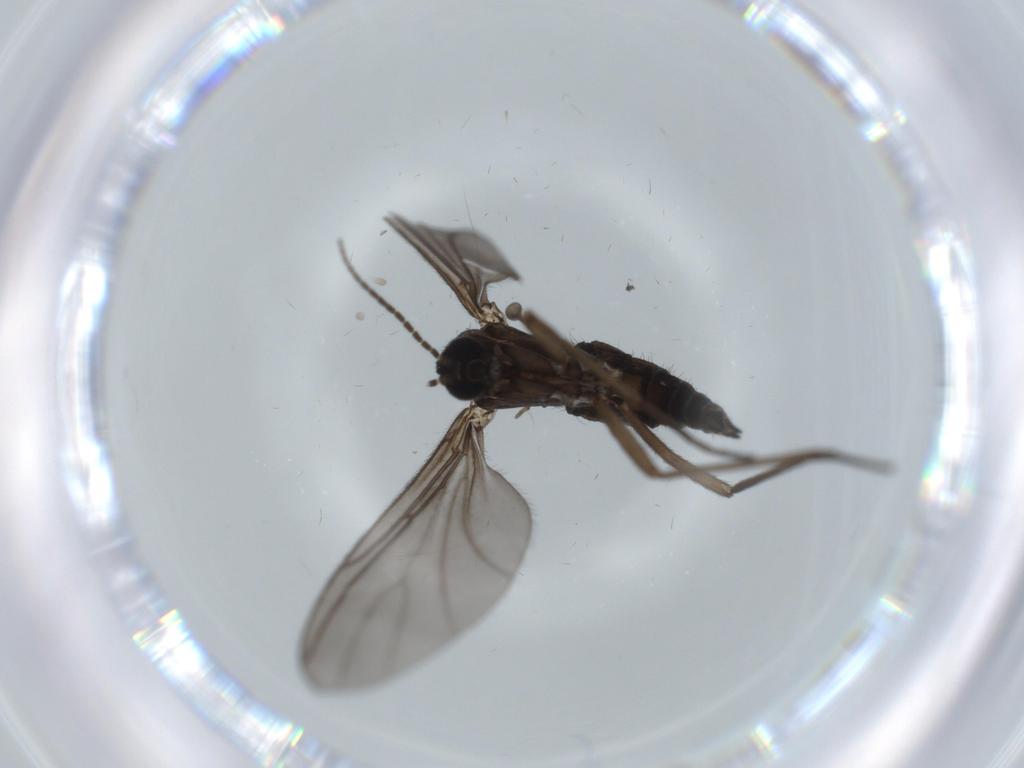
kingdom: Animalia
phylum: Arthropoda
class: Insecta
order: Diptera
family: Sciaridae
